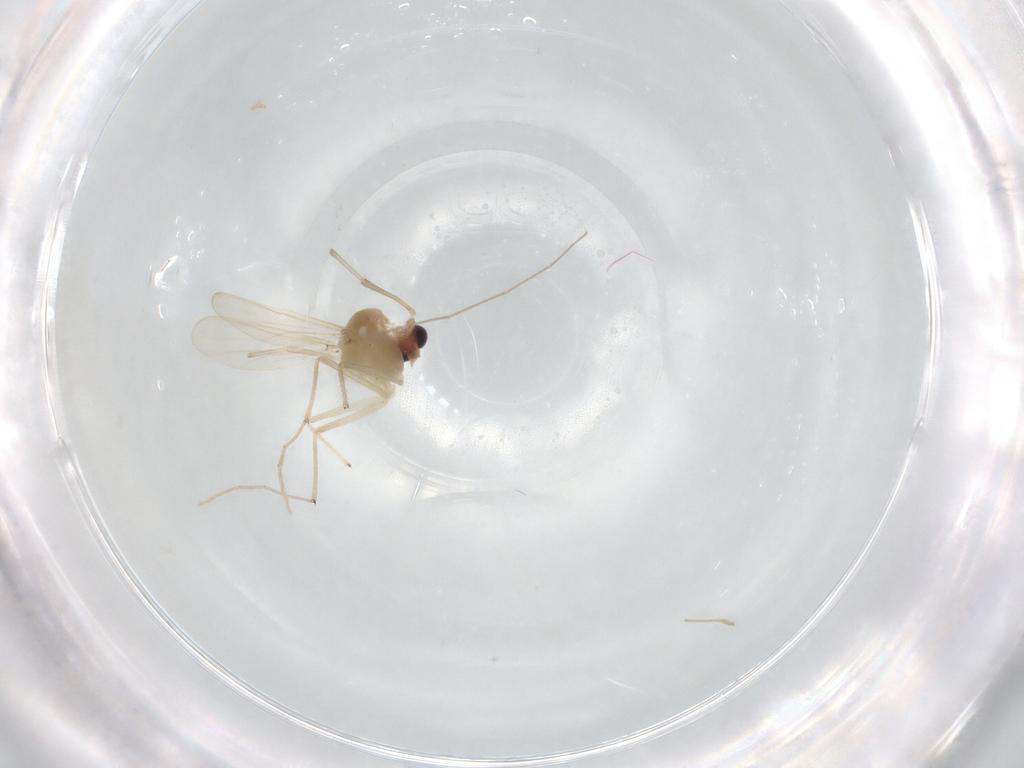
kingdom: Animalia
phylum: Arthropoda
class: Insecta
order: Diptera
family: Chironomidae
